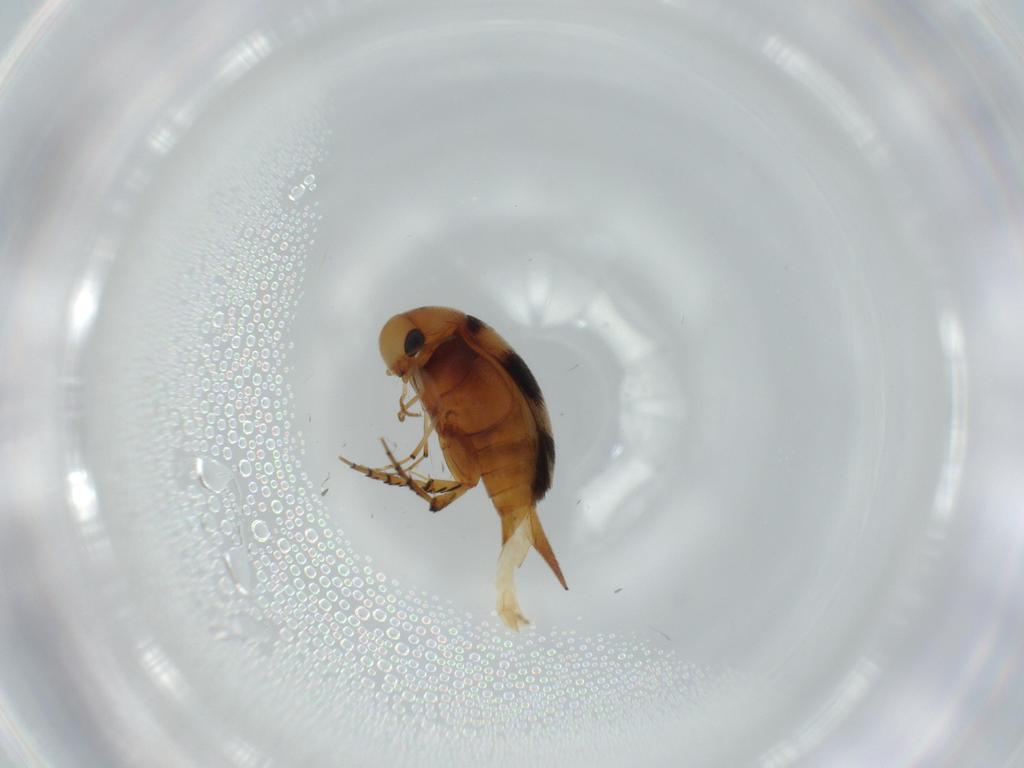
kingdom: Animalia
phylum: Arthropoda
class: Insecta
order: Coleoptera
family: Mordellidae
